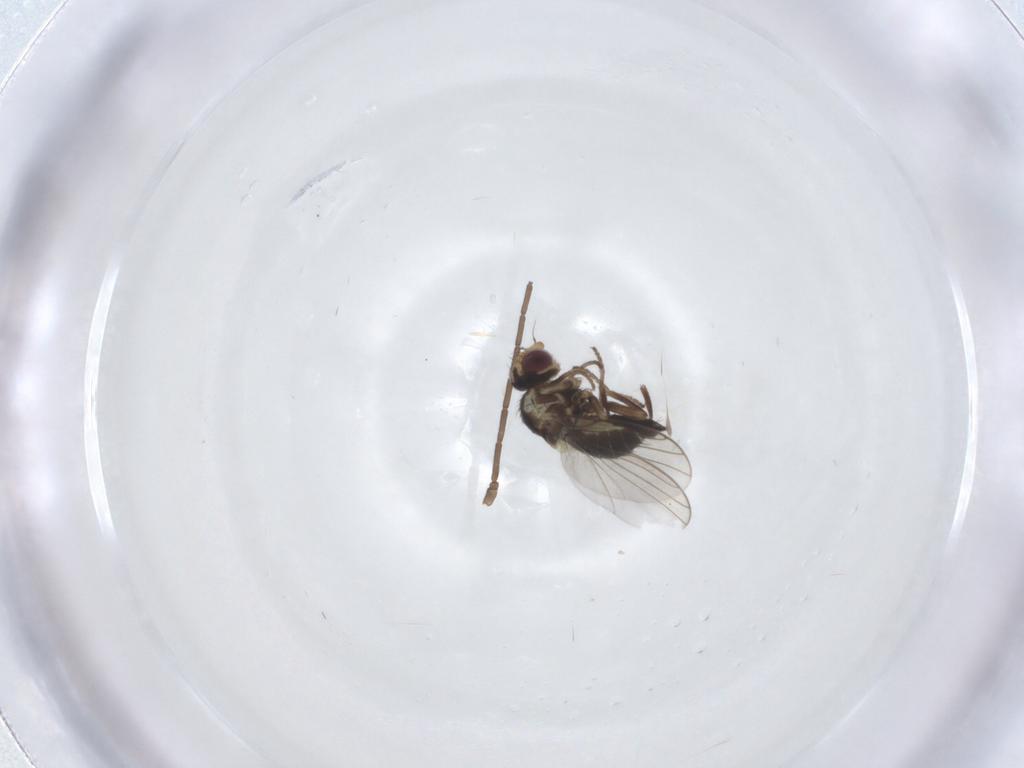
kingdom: Animalia
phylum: Arthropoda
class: Insecta
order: Diptera
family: Agromyzidae
